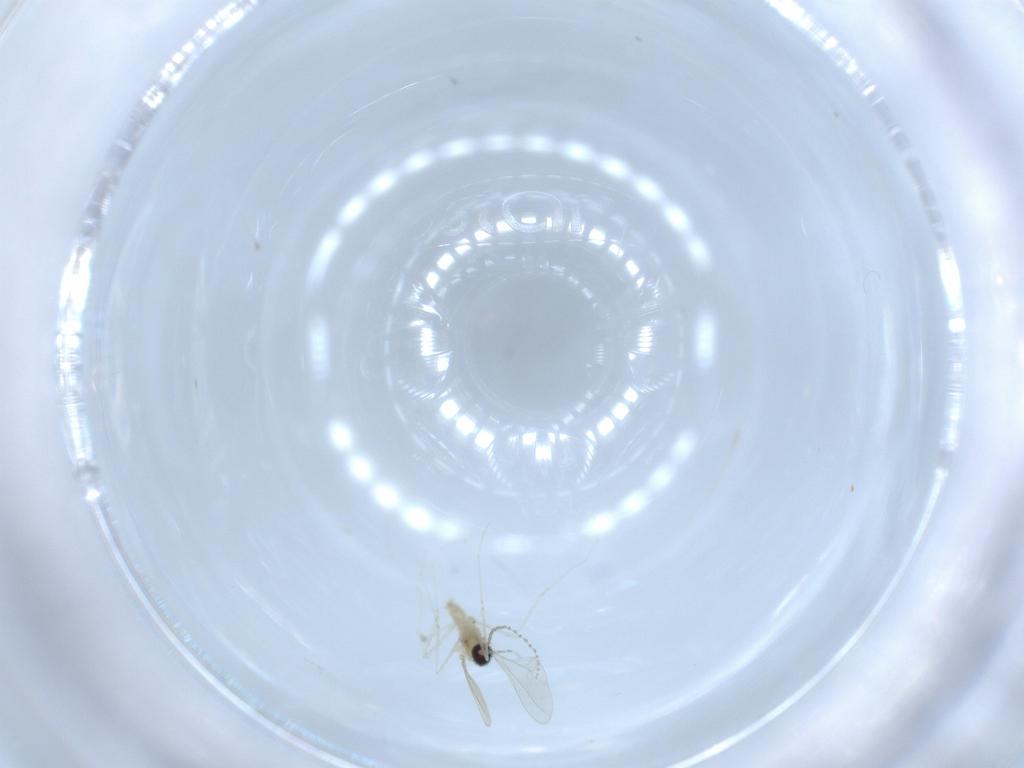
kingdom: Animalia
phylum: Arthropoda
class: Insecta
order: Diptera
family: Cecidomyiidae
